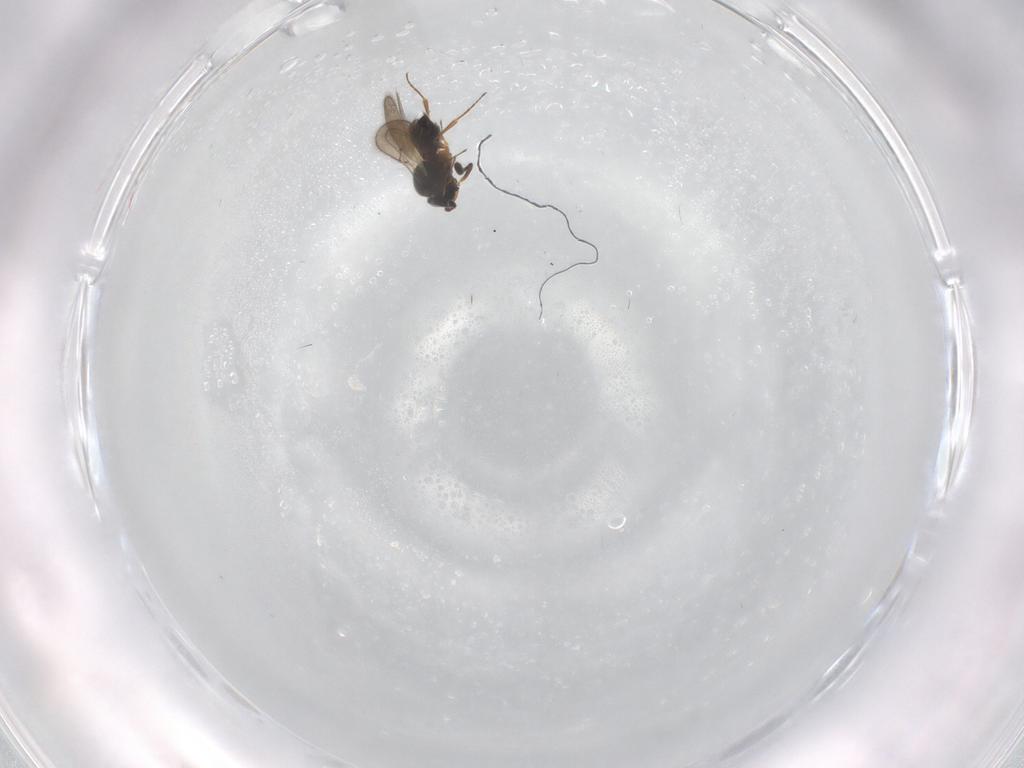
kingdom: Animalia
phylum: Arthropoda
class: Insecta
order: Hymenoptera
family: Scelionidae
